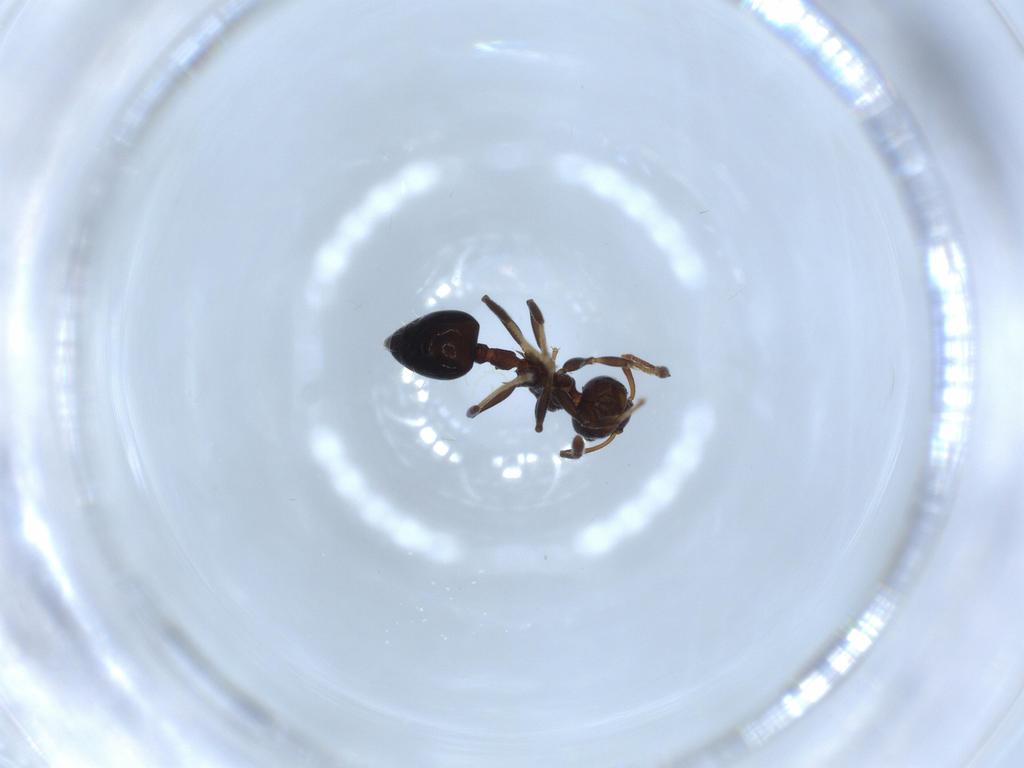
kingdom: Animalia
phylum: Arthropoda
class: Insecta
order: Hymenoptera
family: Formicidae
